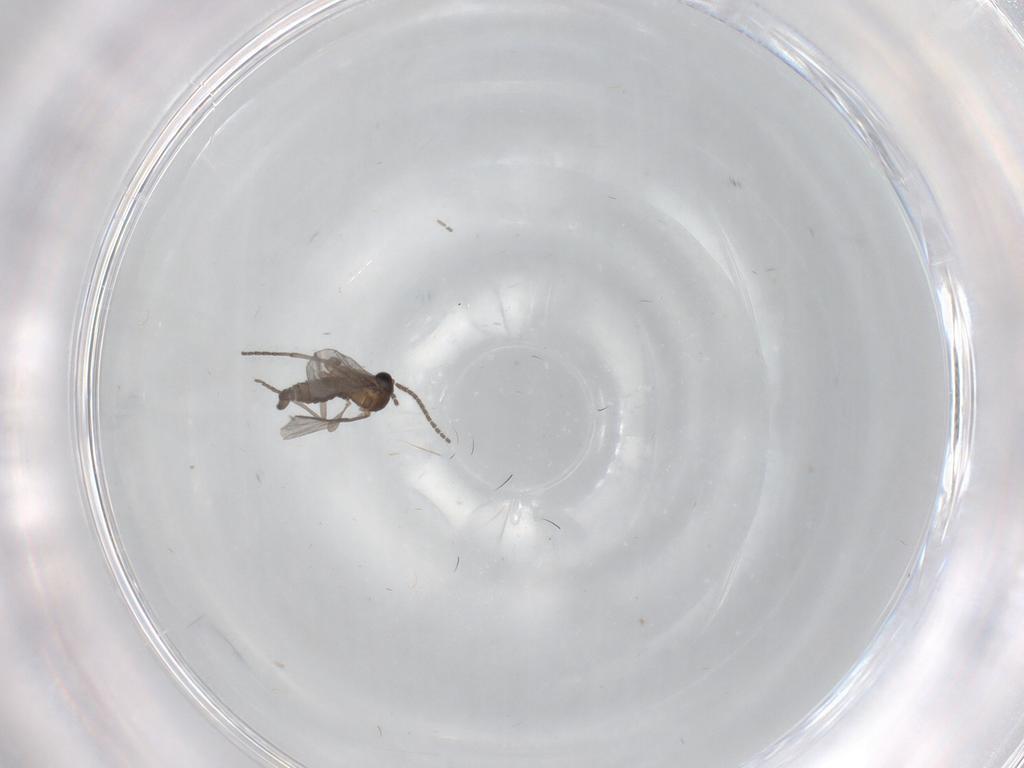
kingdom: Animalia
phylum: Arthropoda
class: Insecta
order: Diptera
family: Sciaridae
